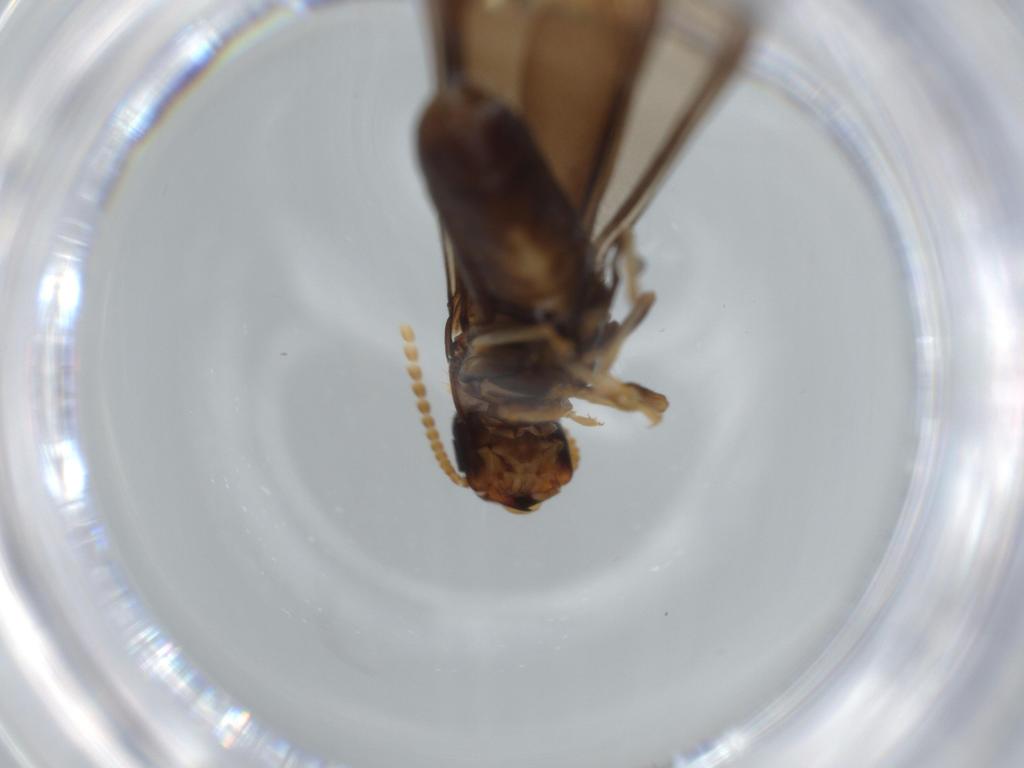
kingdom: Animalia
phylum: Arthropoda
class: Insecta
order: Blattodea
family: Kalotermitidae
